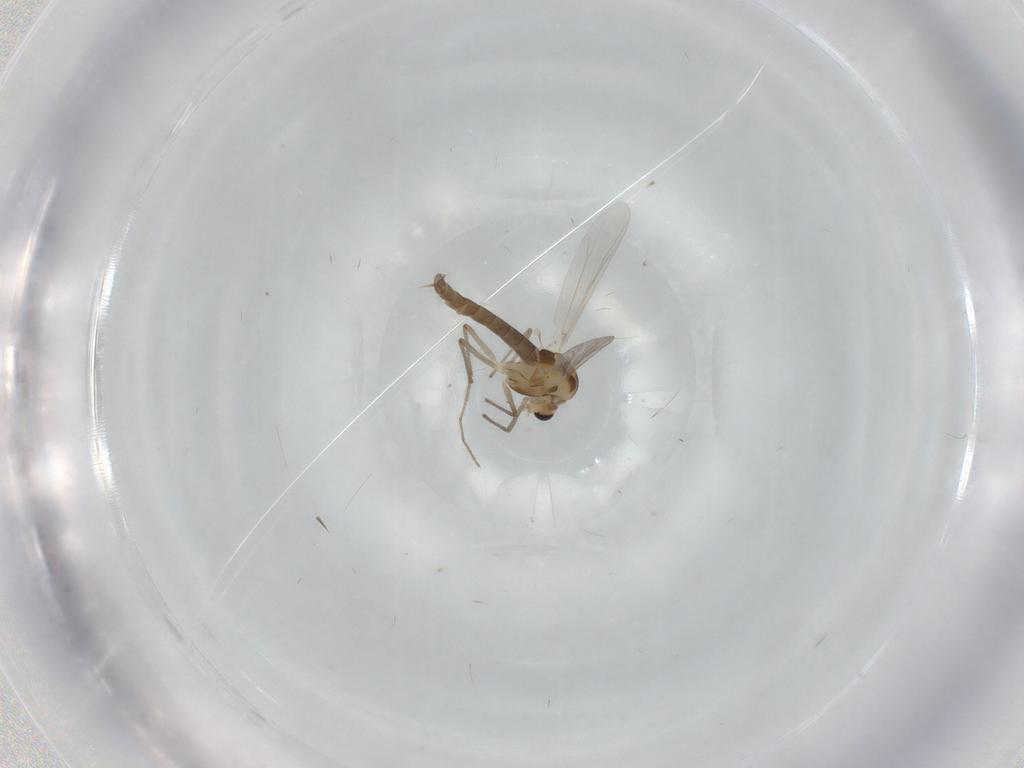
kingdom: Animalia
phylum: Arthropoda
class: Insecta
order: Diptera
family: Chironomidae
